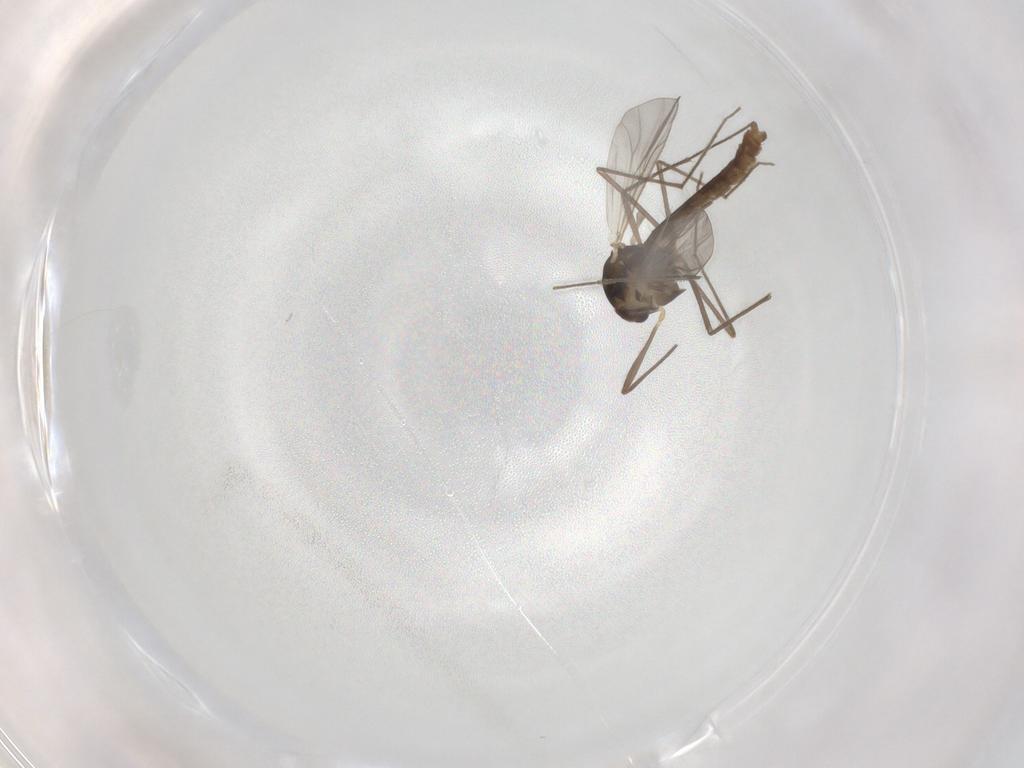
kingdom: Animalia
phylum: Arthropoda
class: Insecta
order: Diptera
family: Chironomidae
